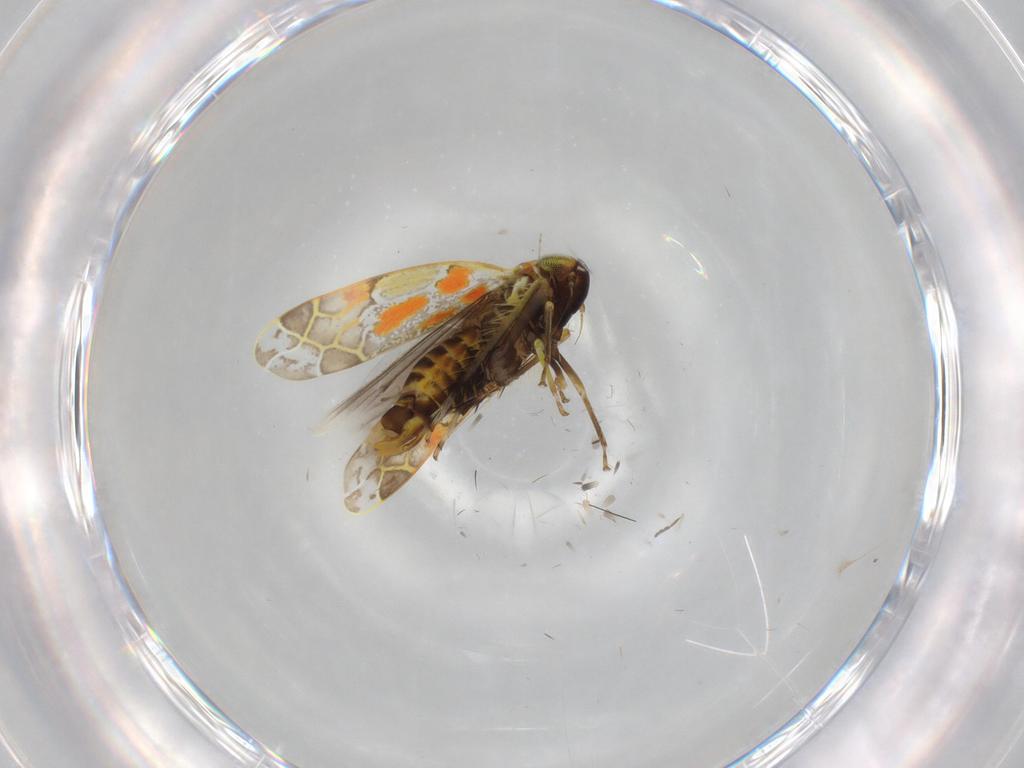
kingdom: Animalia
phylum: Arthropoda
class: Insecta
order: Hemiptera
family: Cicadellidae
